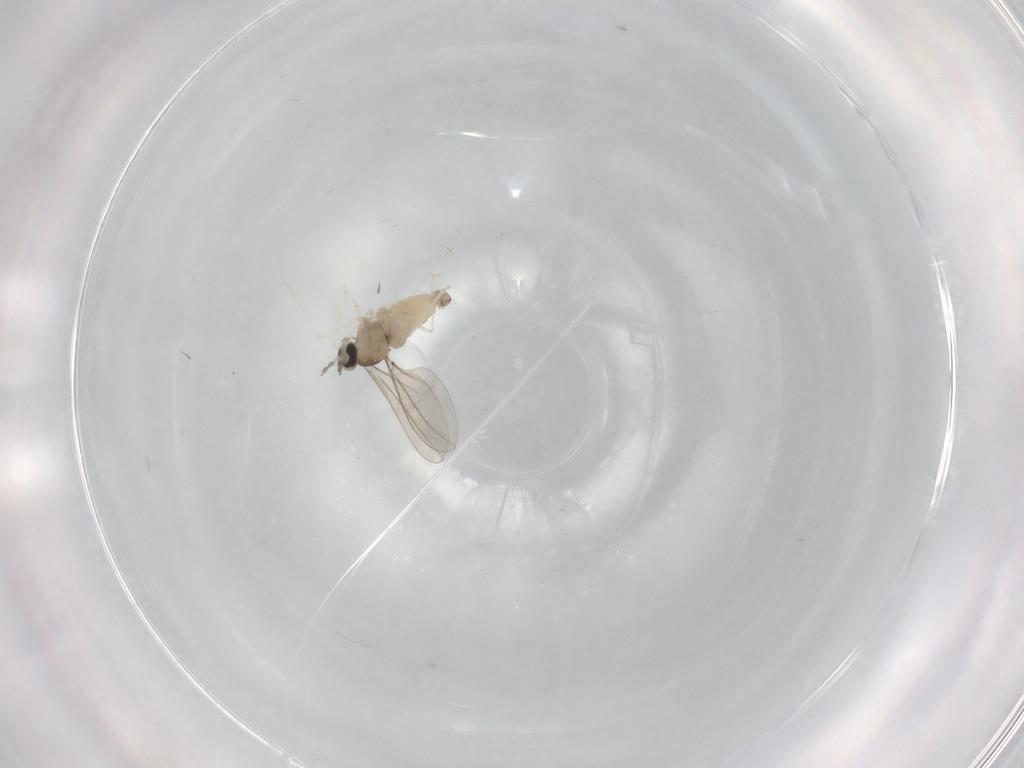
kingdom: Animalia
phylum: Arthropoda
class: Insecta
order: Diptera
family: Cecidomyiidae
